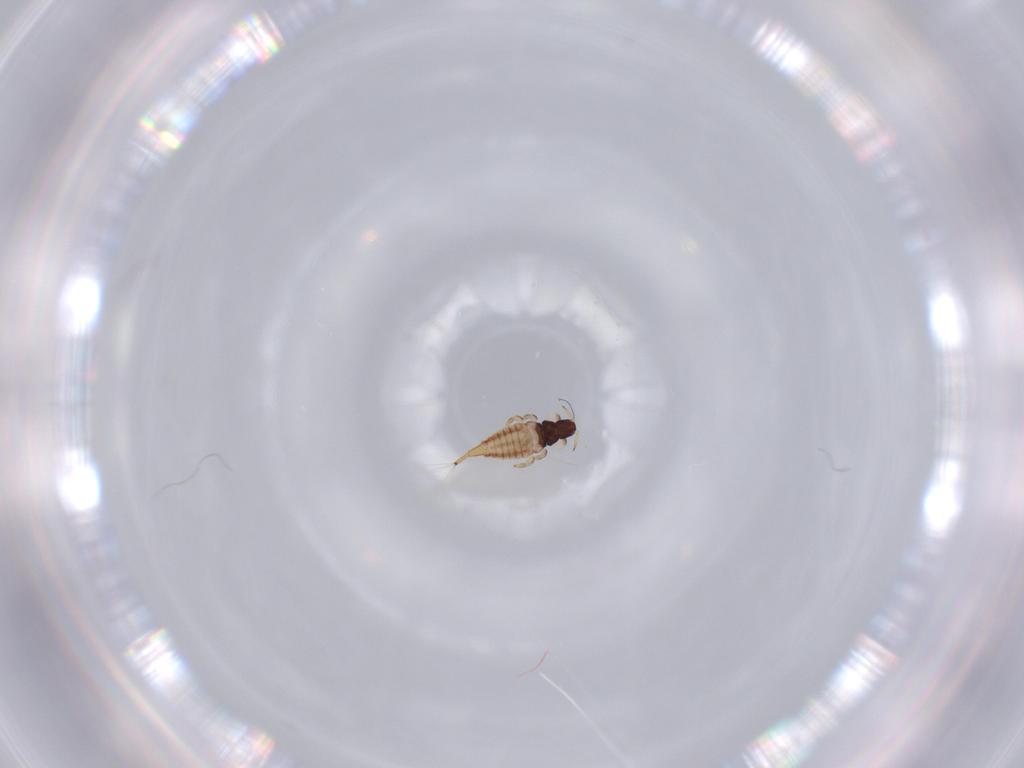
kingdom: Animalia
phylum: Arthropoda
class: Insecta
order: Thysanoptera
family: Phlaeothripidae
